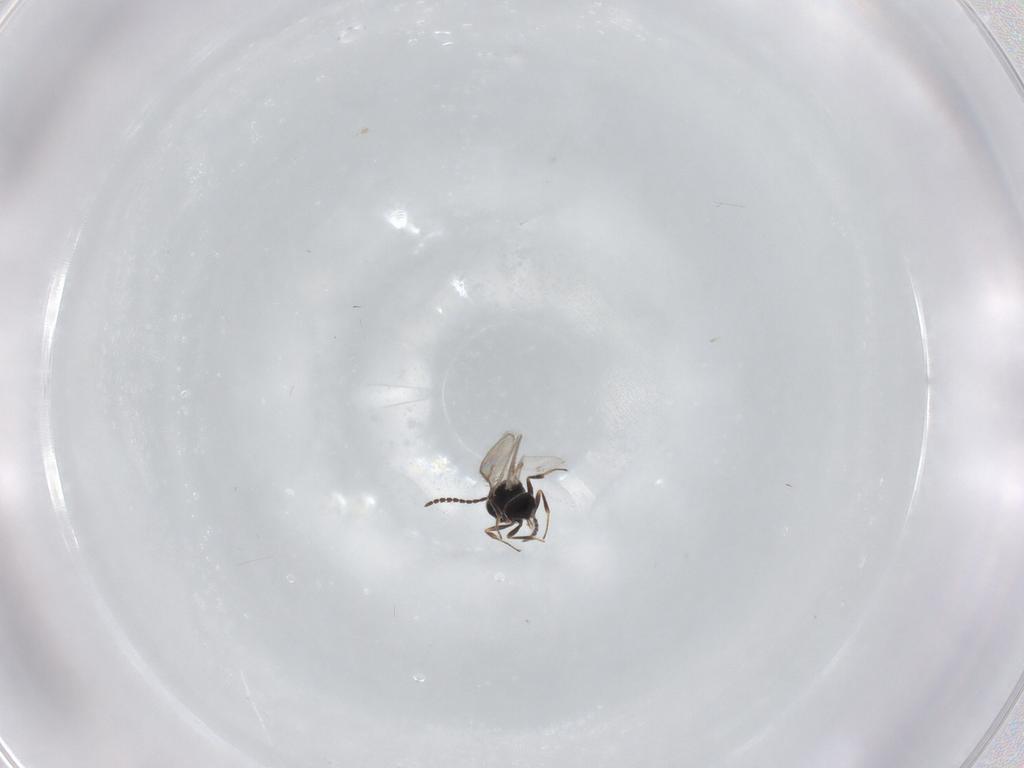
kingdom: Animalia
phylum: Arthropoda
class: Insecta
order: Hymenoptera
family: Scelionidae
